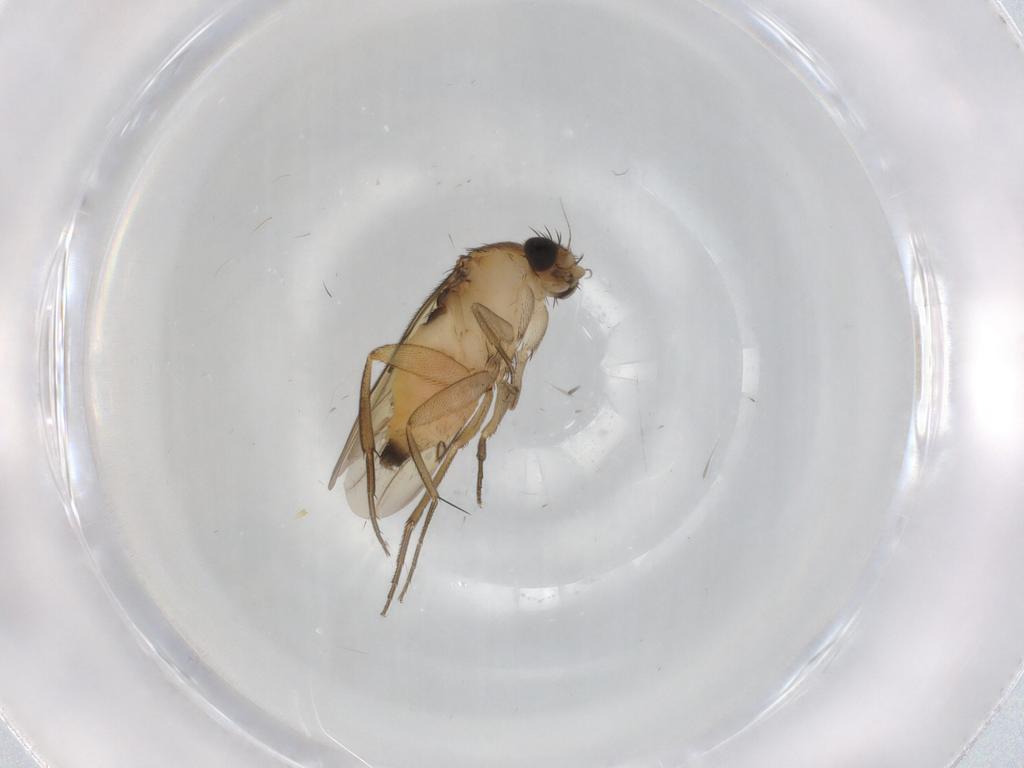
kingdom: Animalia
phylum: Arthropoda
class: Insecta
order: Diptera
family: Sciaridae
